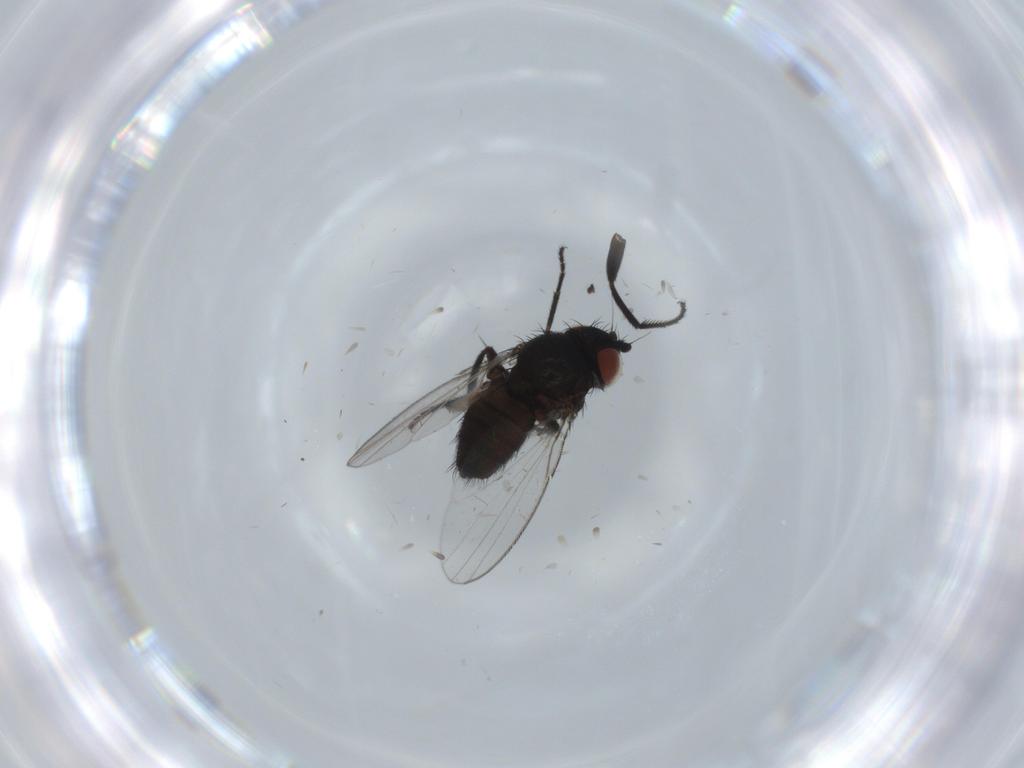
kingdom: Animalia
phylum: Arthropoda
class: Insecta
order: Diptera
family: Milichiidae
